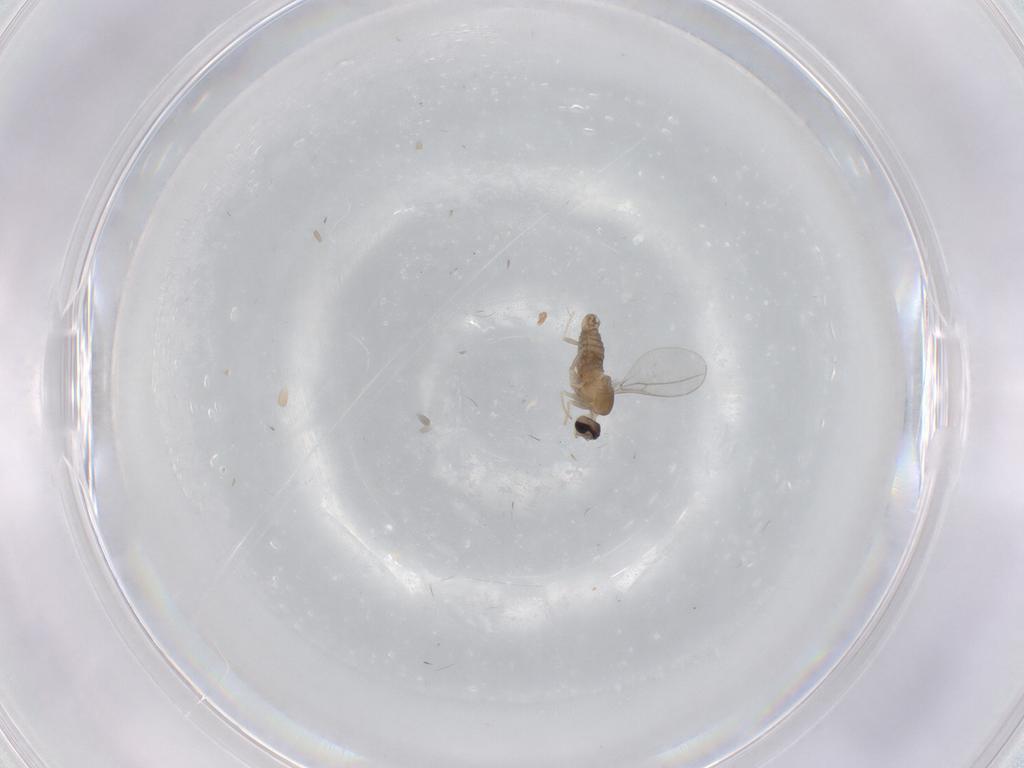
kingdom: Animalia
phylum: Arthropoda
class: Insecta
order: Diptera
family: Cecidomyiidae
